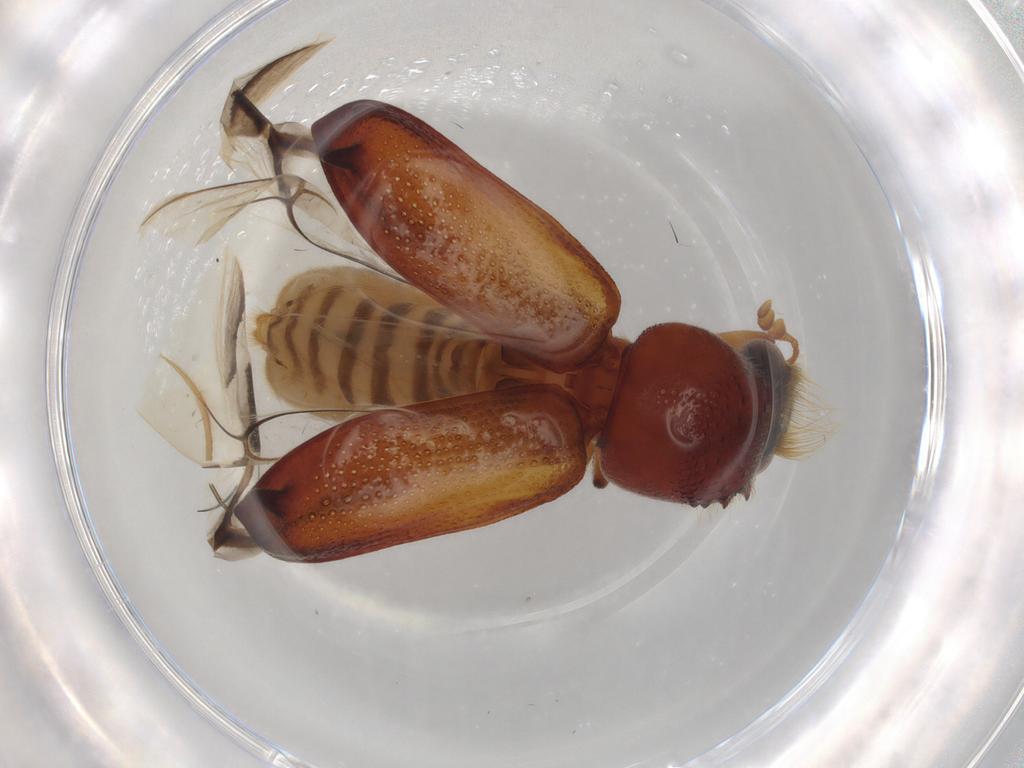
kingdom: Animalia
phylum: Arthropoda
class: Insecta
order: Coleoptera
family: Bostrichidae
